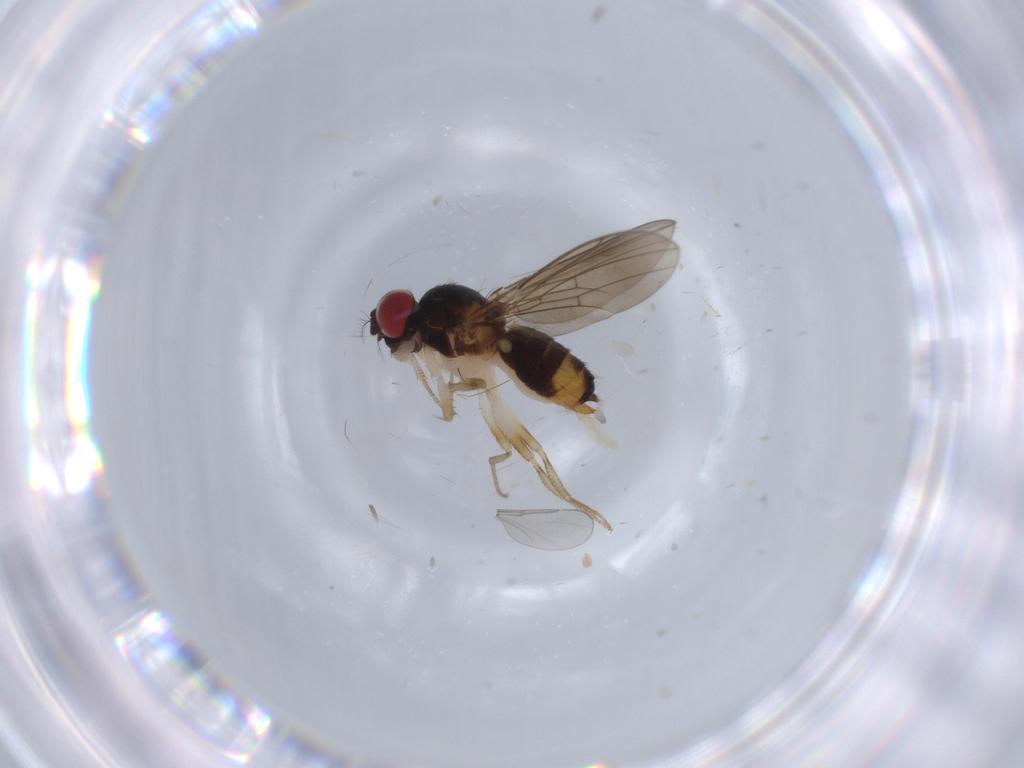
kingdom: Animalia
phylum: Arthropoda
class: Insecta
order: Diptera
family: Drosophilidae
